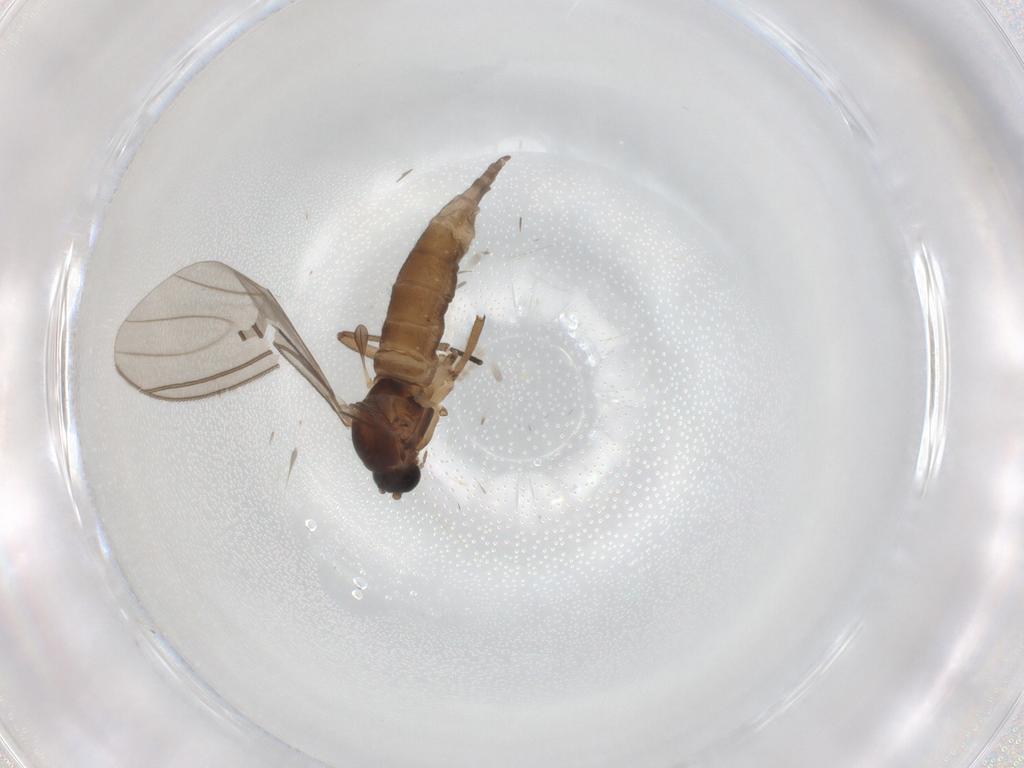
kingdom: Animalia
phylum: Arthropoda
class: Insecta
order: Diptera
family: Sciaridae
